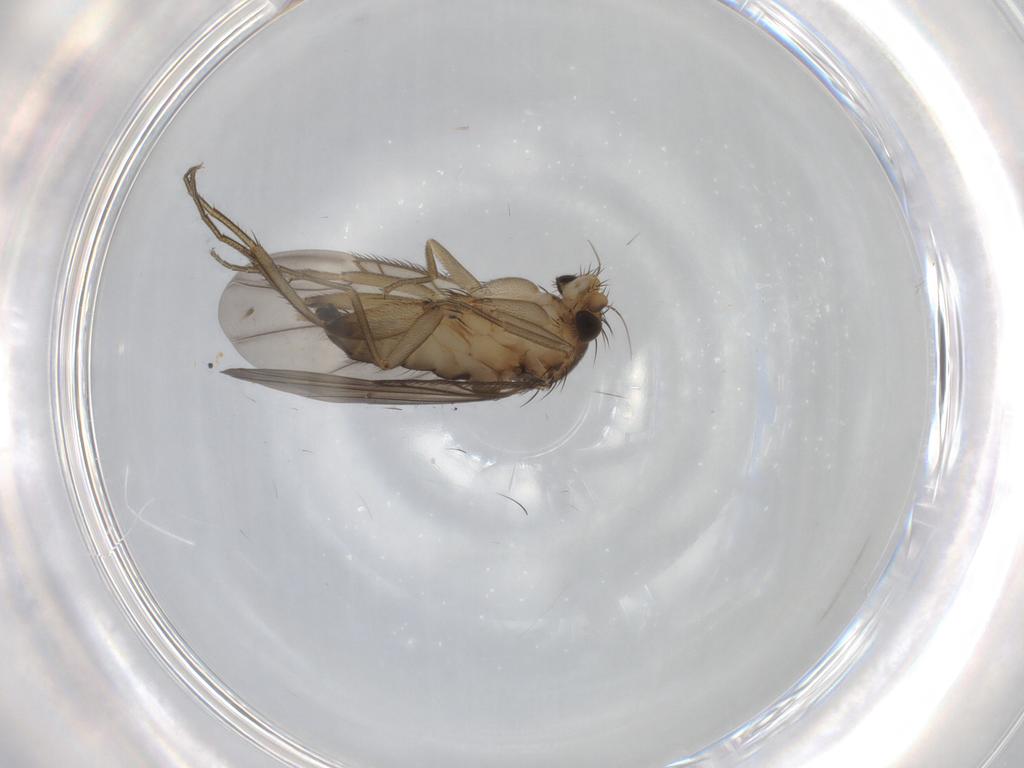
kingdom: Animalia
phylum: Arthropoda
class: Insecta
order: Diptera
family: Phoridae
